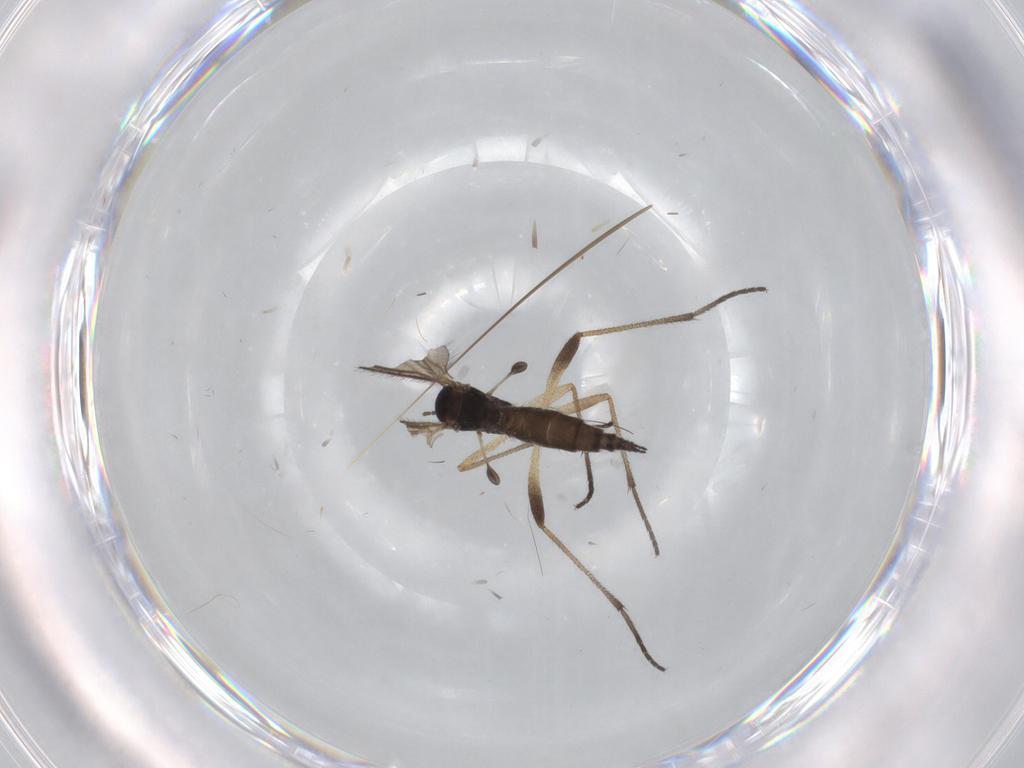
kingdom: Animalia
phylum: Arthropoda
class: Insecta
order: Diptera
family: Sciaridae
